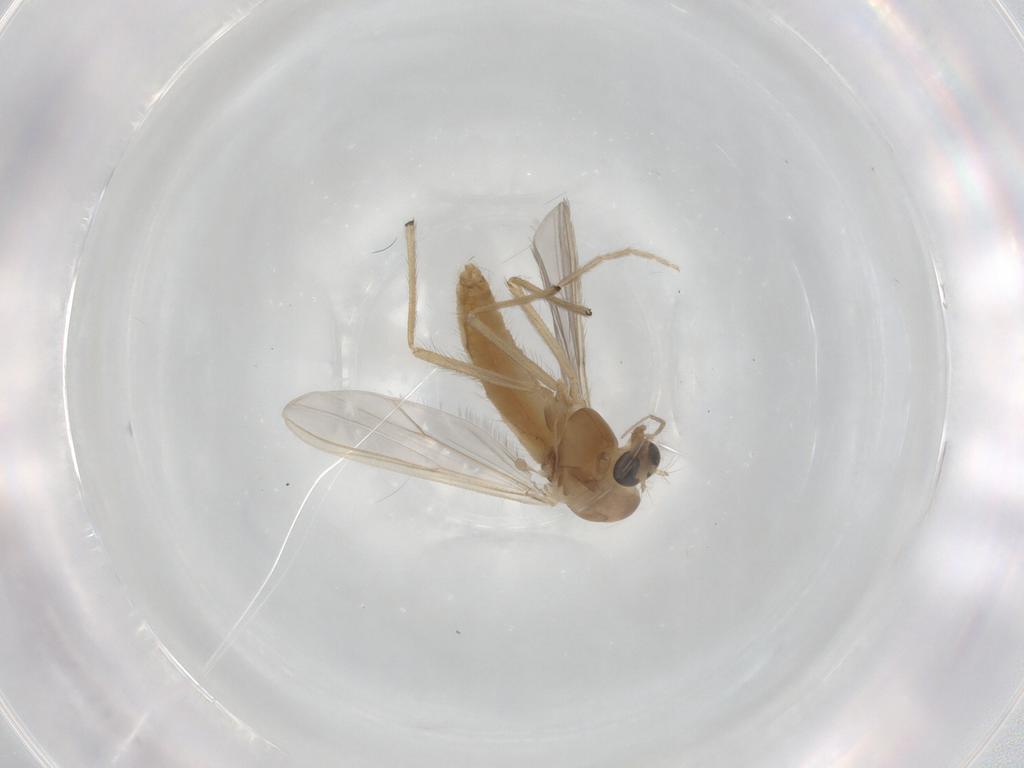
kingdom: Animalia
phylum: Arthropoda
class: Insecta
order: Diptera
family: Chironomidae
